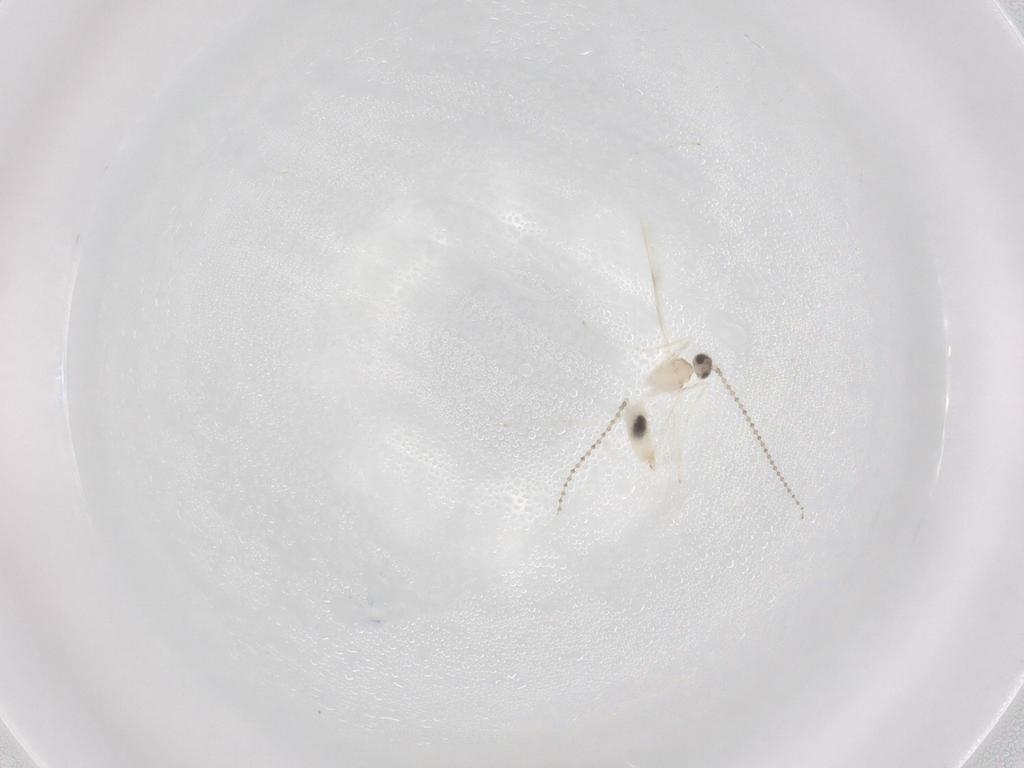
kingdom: Animalia
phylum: Arthropoda
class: Insecta
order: Diptera
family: Cecidomyiidae
